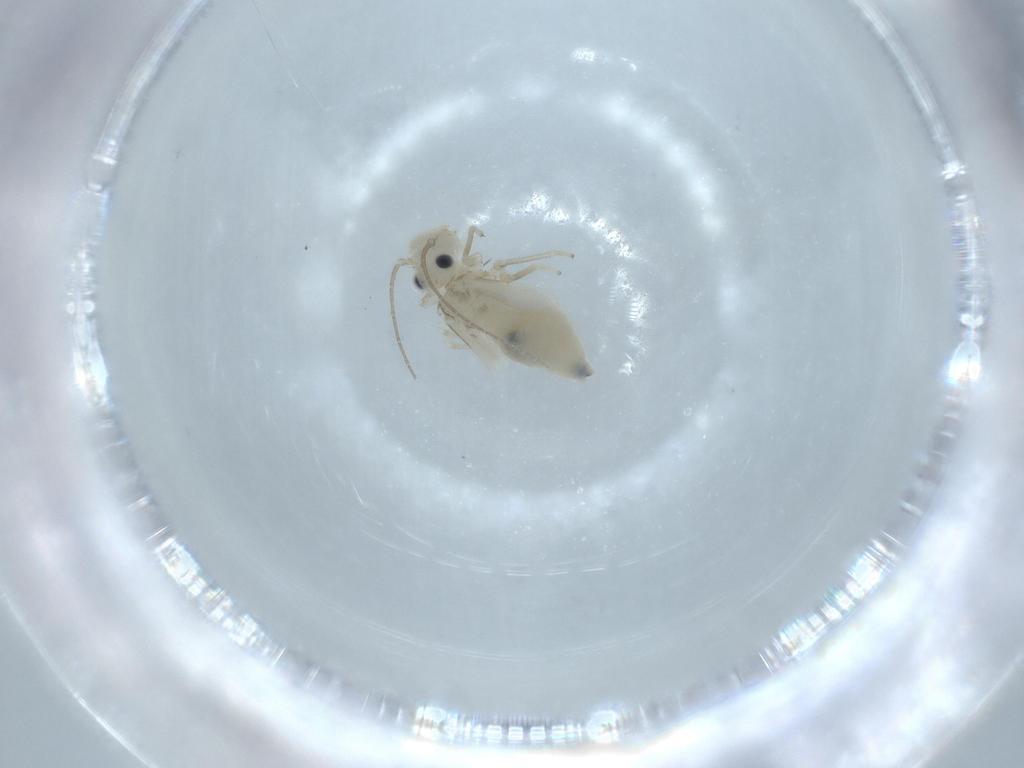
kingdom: Animalia
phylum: Arthropoda
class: Insecta
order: Psocodea
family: Caeciliusidae
